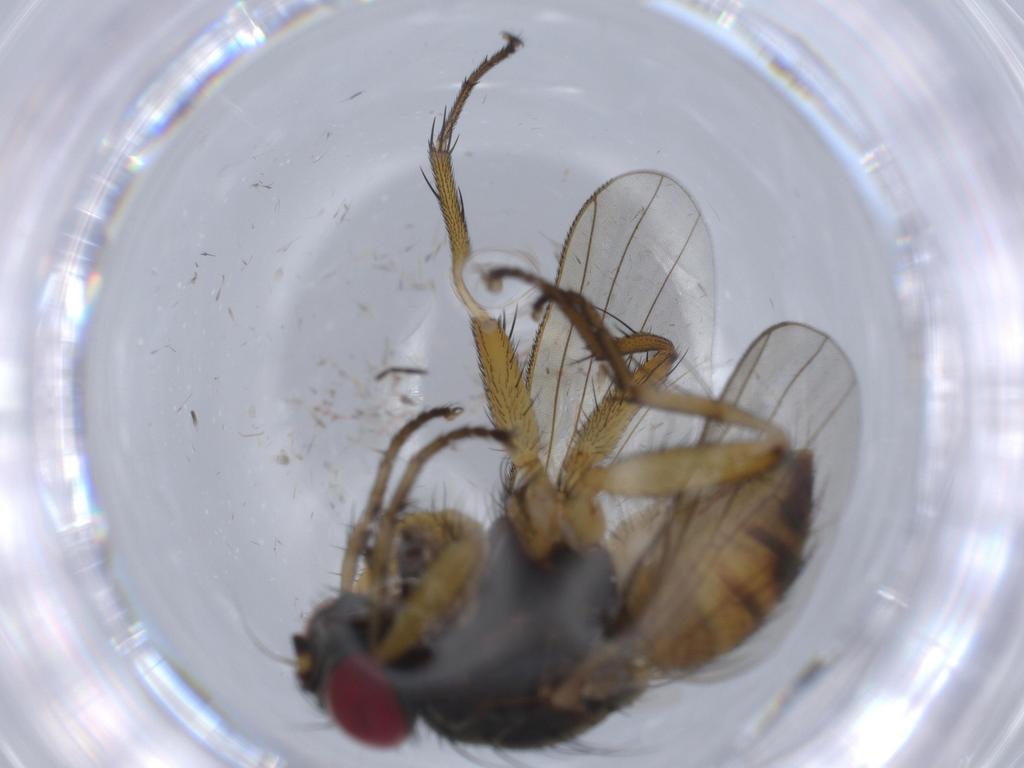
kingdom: Animalia
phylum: Arthropoda
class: Insecta
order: Diptera
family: Muscidae
